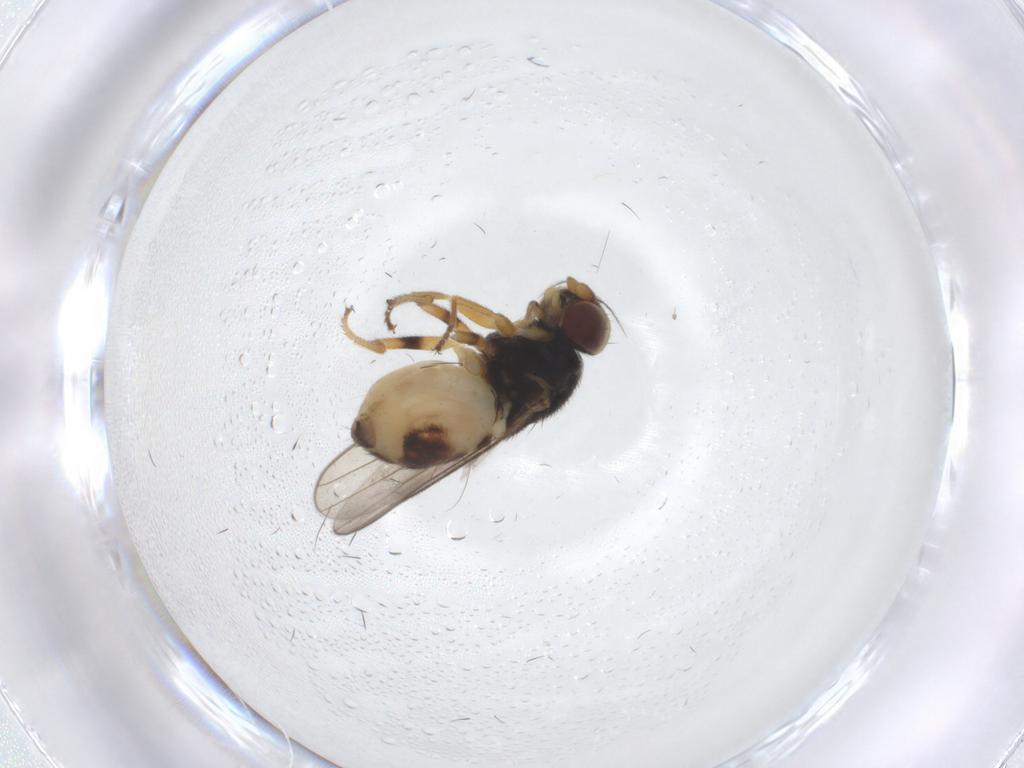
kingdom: Animalia
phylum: Arthropoda
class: Insecta
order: Diptera
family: Chloropidae
